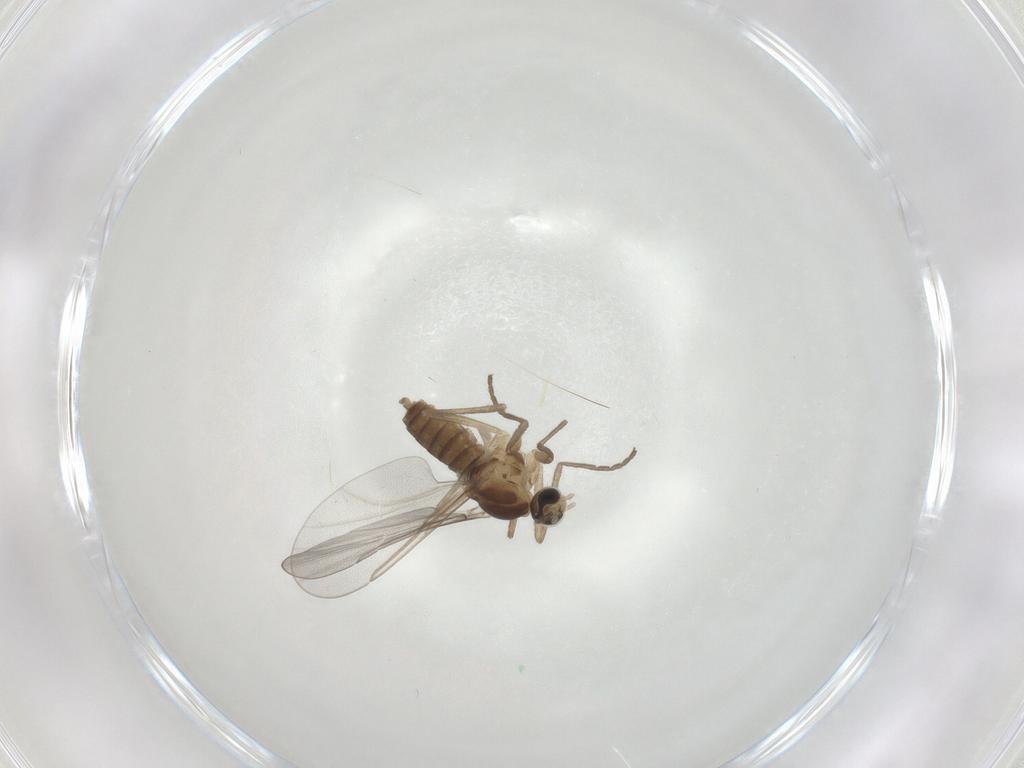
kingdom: Animalia
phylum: Arthropoda
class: Insecta
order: Diptera
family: Cecidomyiidae
